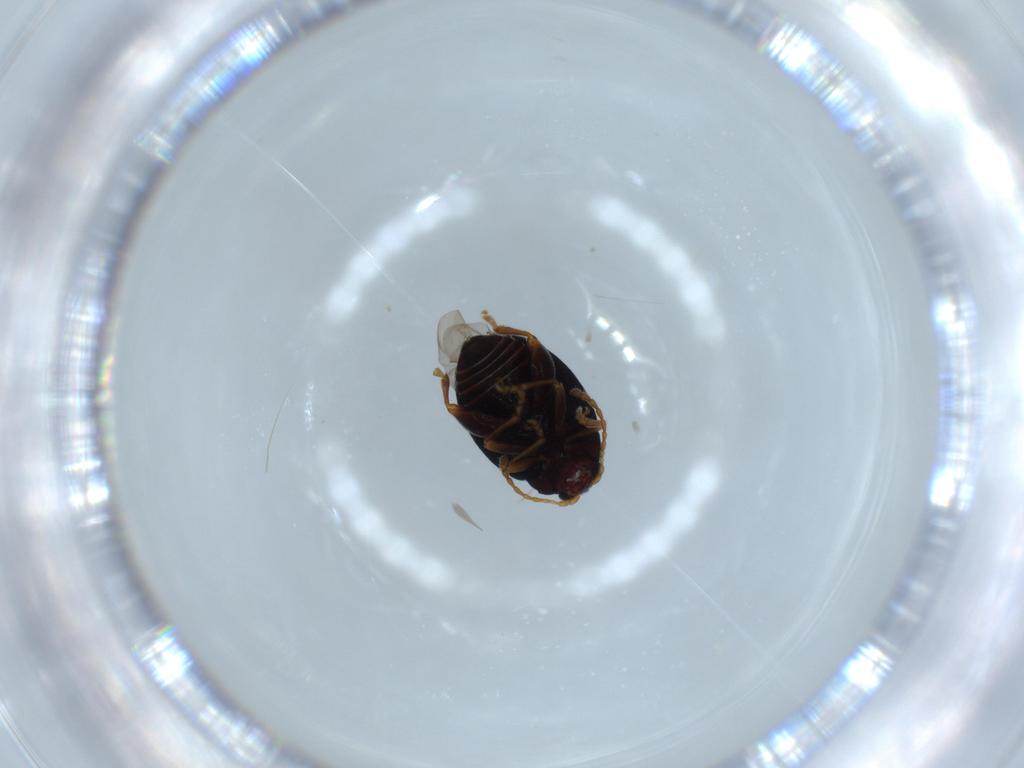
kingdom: Animalia
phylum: Arthropoda
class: Insecta
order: Coleoptera
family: Chrysomelidae
